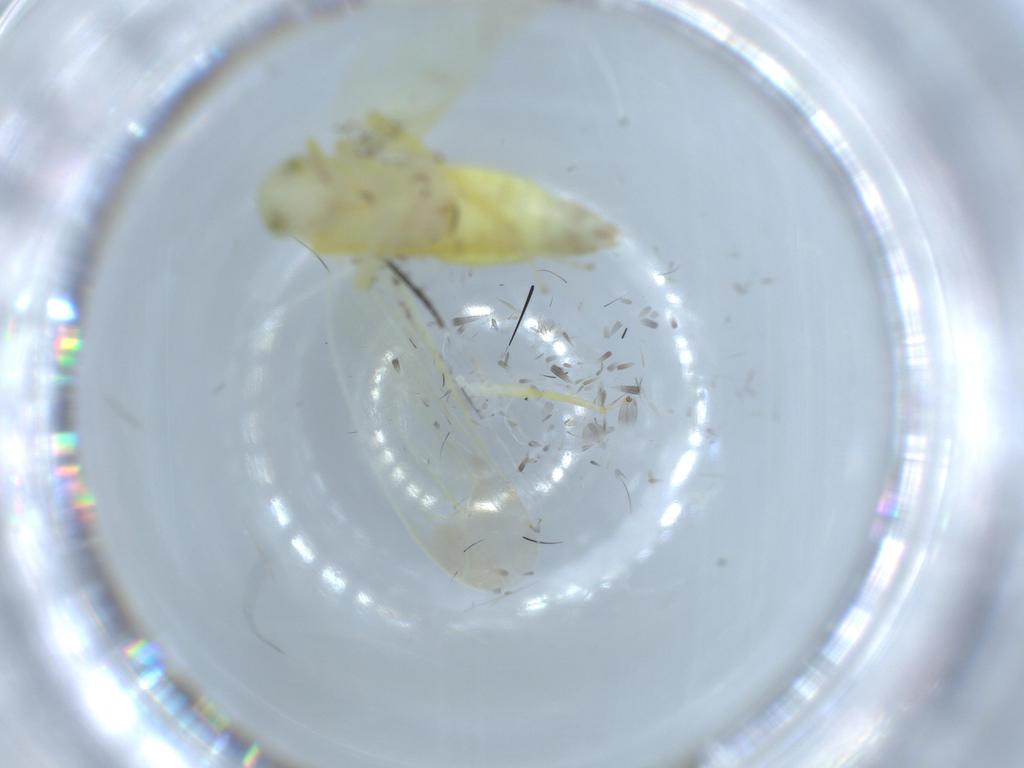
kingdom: Animalia
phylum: Arthropoda
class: Insecta
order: Hemiptera
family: Cicadellidae
